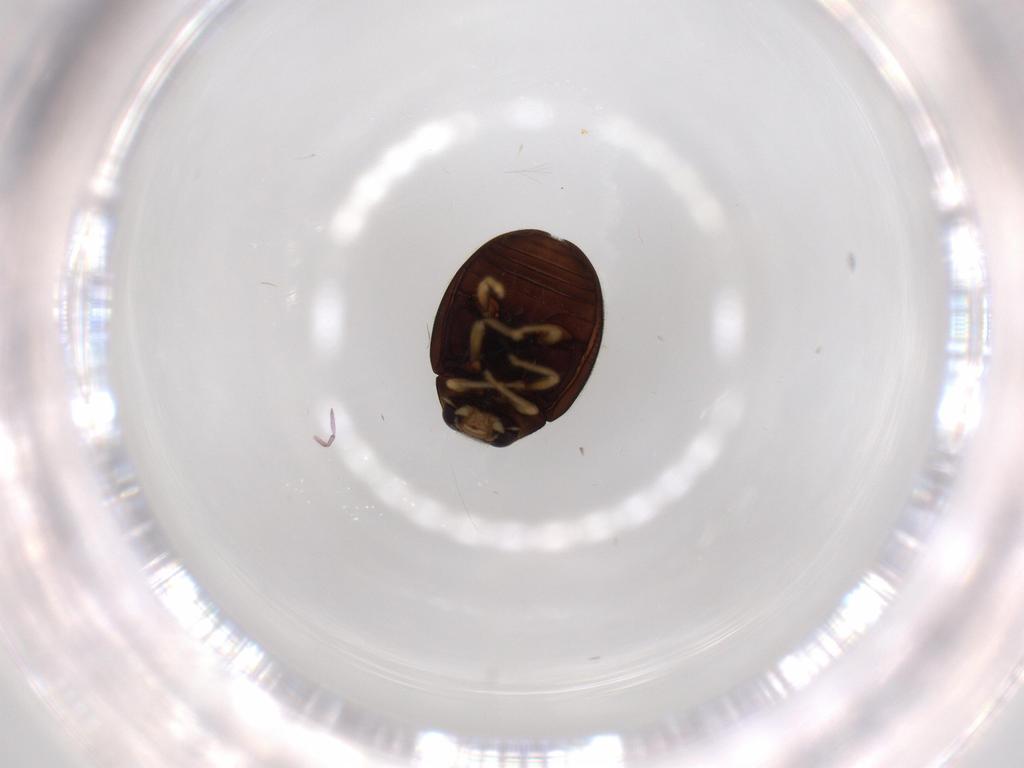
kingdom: Animalia
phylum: Arthropoda
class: Insecta
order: Coleoptera
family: Coccinellidae
